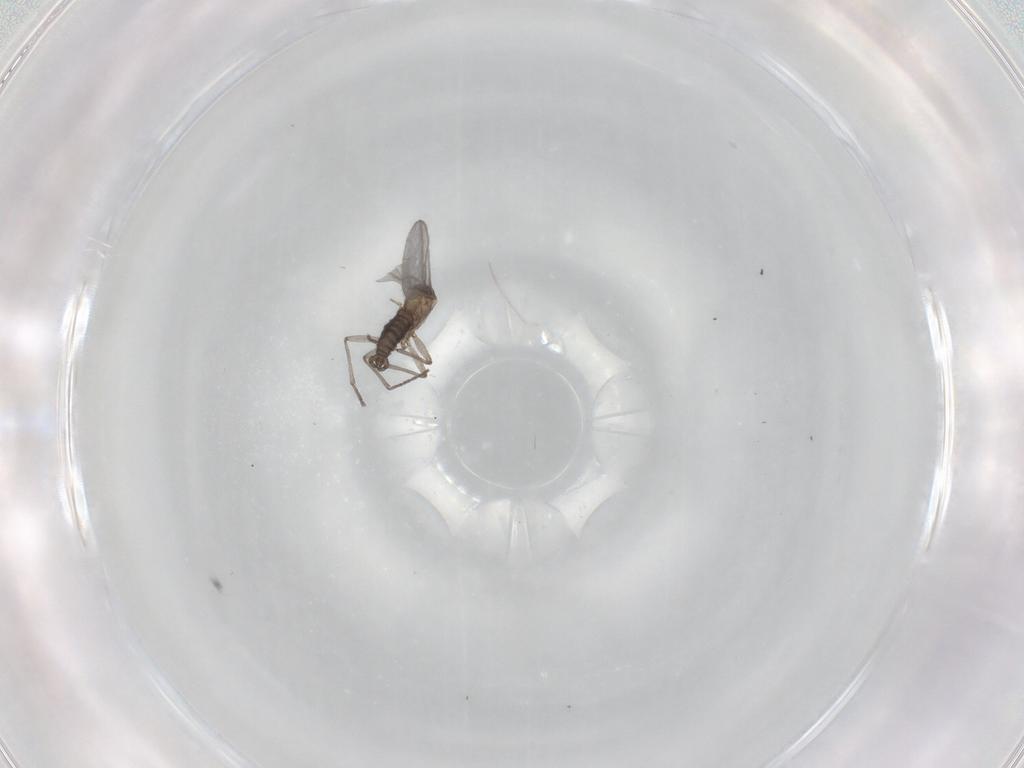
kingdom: Animalia
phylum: Arthropoda
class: Insecta
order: Diptera
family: Sciaridae
